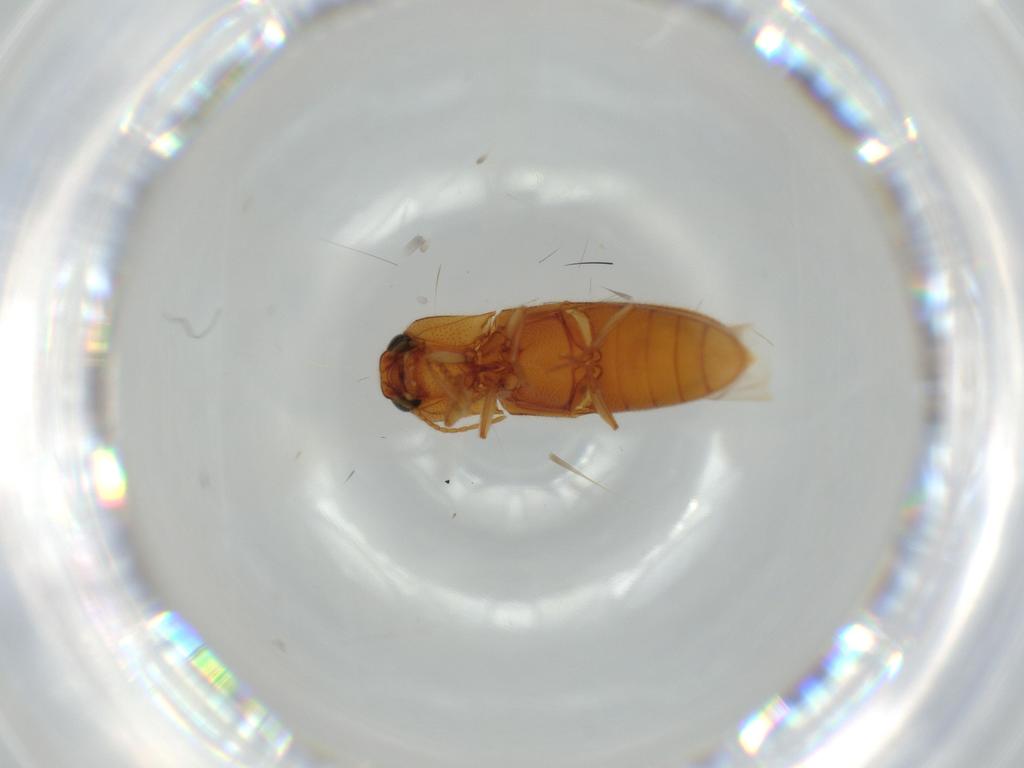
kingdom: Animalia
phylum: Arthropoda
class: Insecta
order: Coleoptera
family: Elateridae
